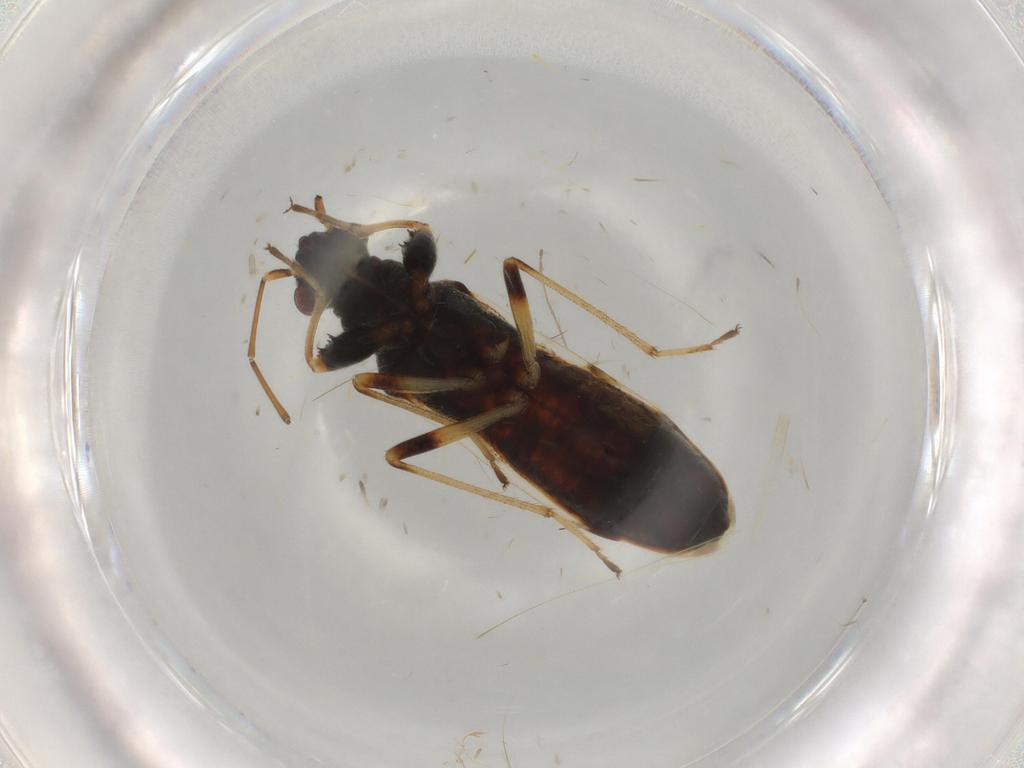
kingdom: Animalia
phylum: Arthropoda
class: Insecta
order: Hemiptera
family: Rhyparochromidae
